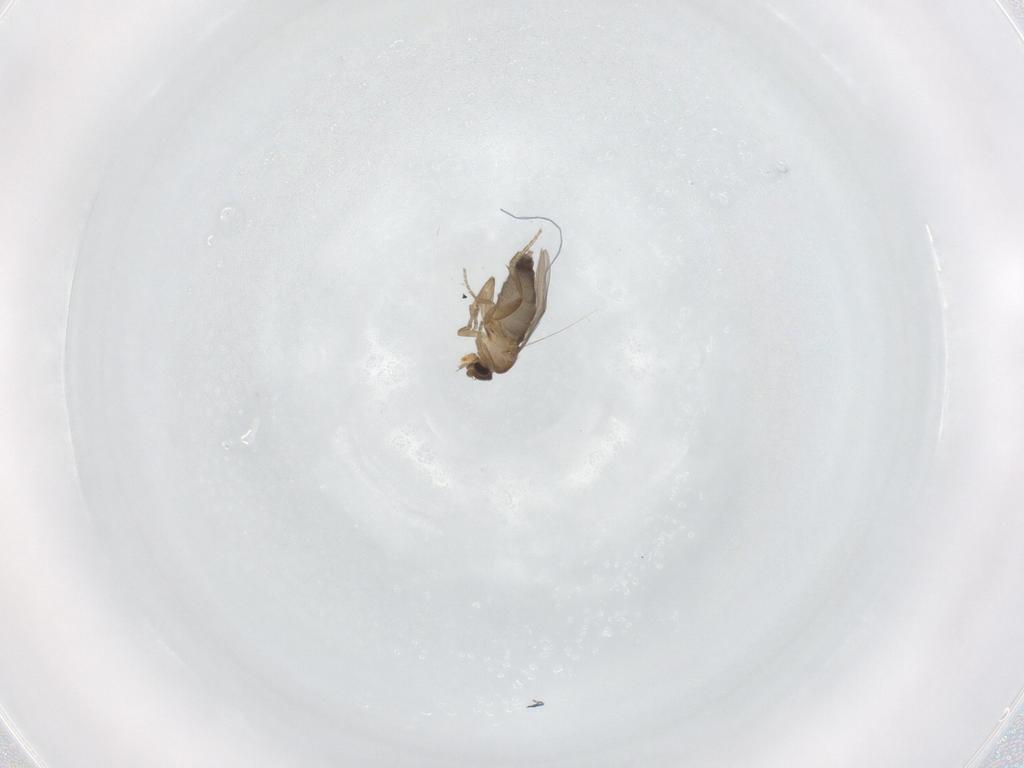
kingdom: Animalia
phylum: Arthropoda
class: Insecta
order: Diptera
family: Phoridae
